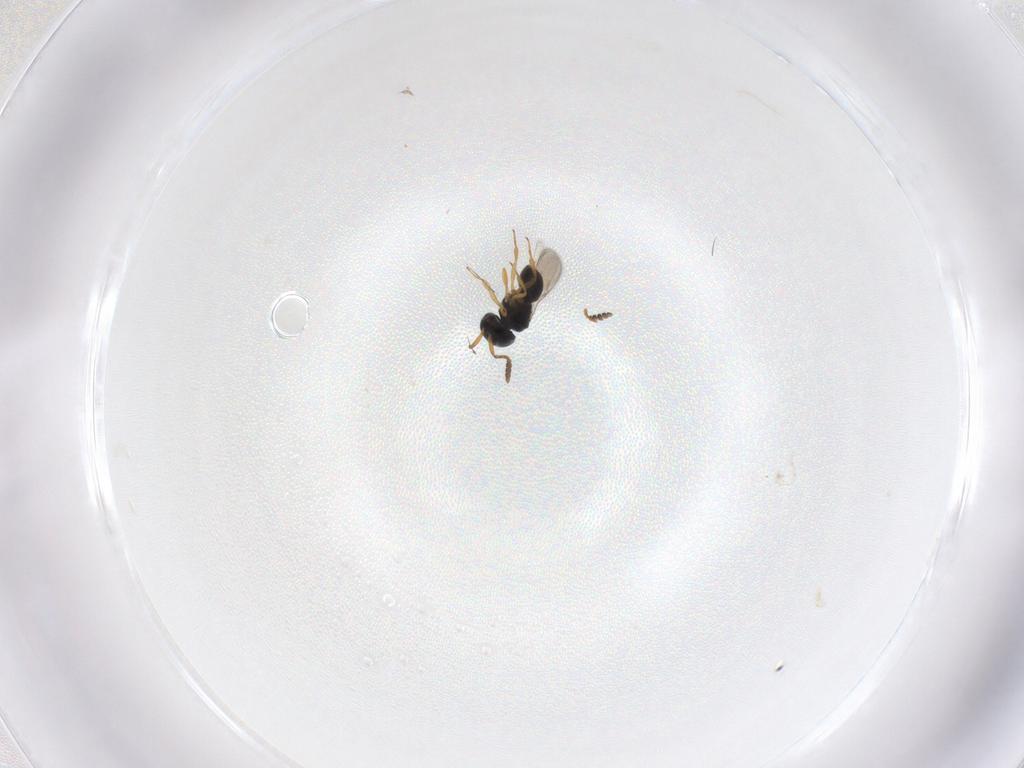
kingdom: Animalia
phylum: Arthropoda
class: Insecta
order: Hymenoptera
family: Scelionidae
